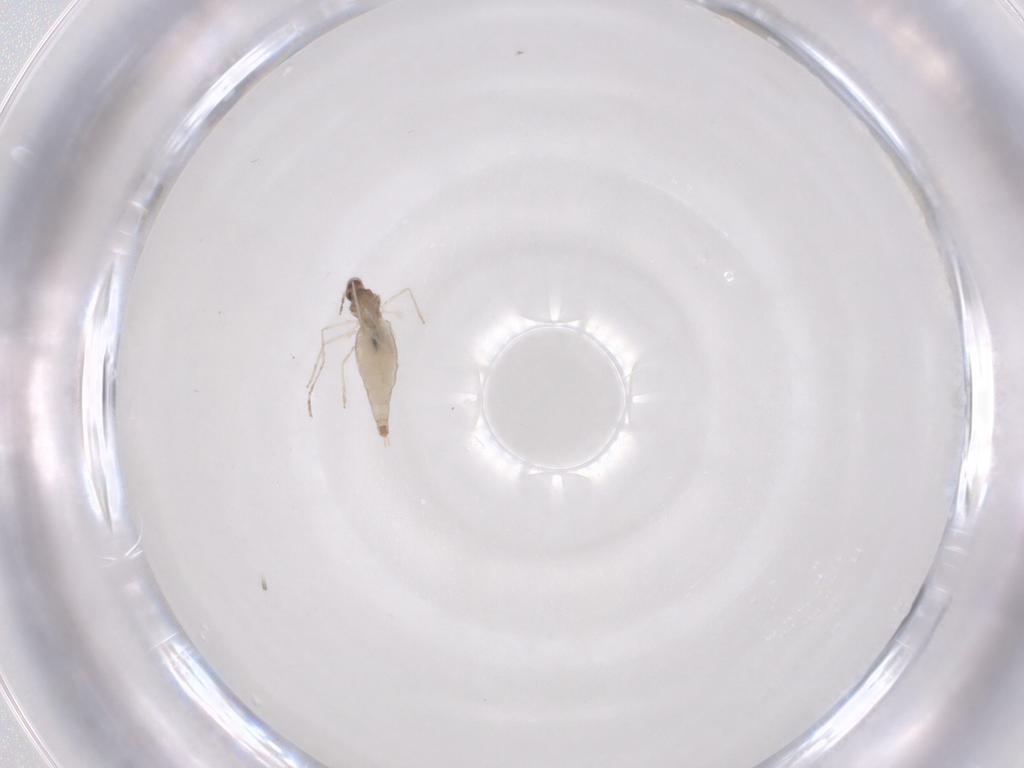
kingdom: Animalia
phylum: Arthropoda
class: Insecta
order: Diptera
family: Cecidomyiidae
